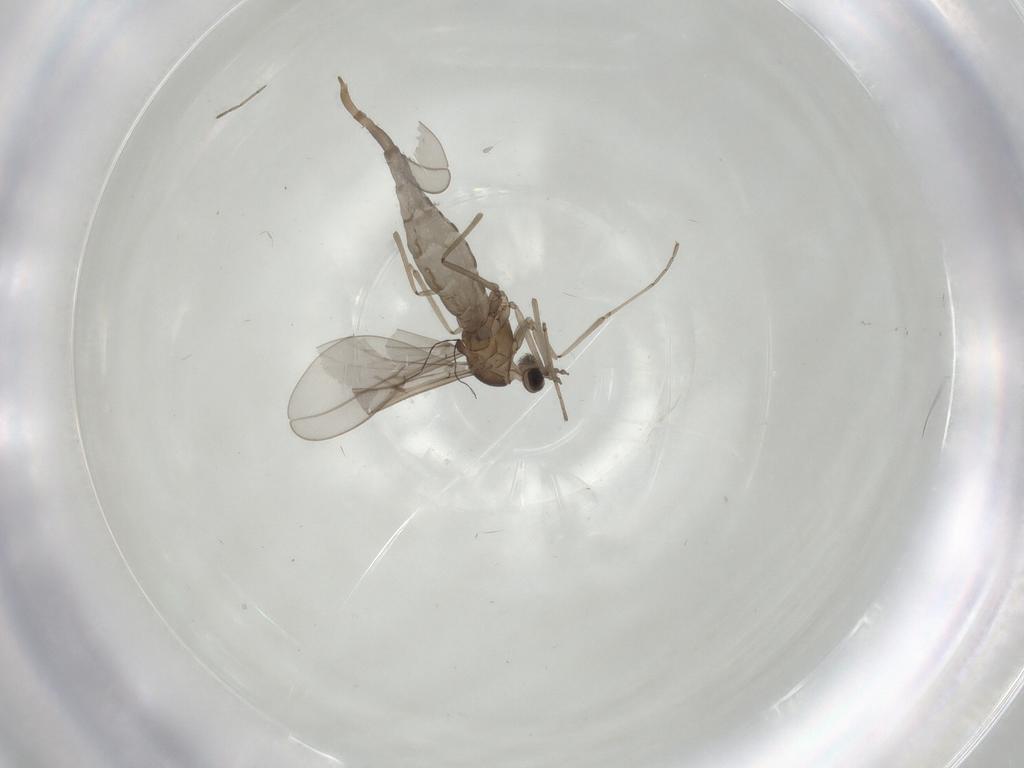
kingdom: Animalia
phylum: Arthropoda
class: Insecta
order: Diptera
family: Cecidomyiidae
